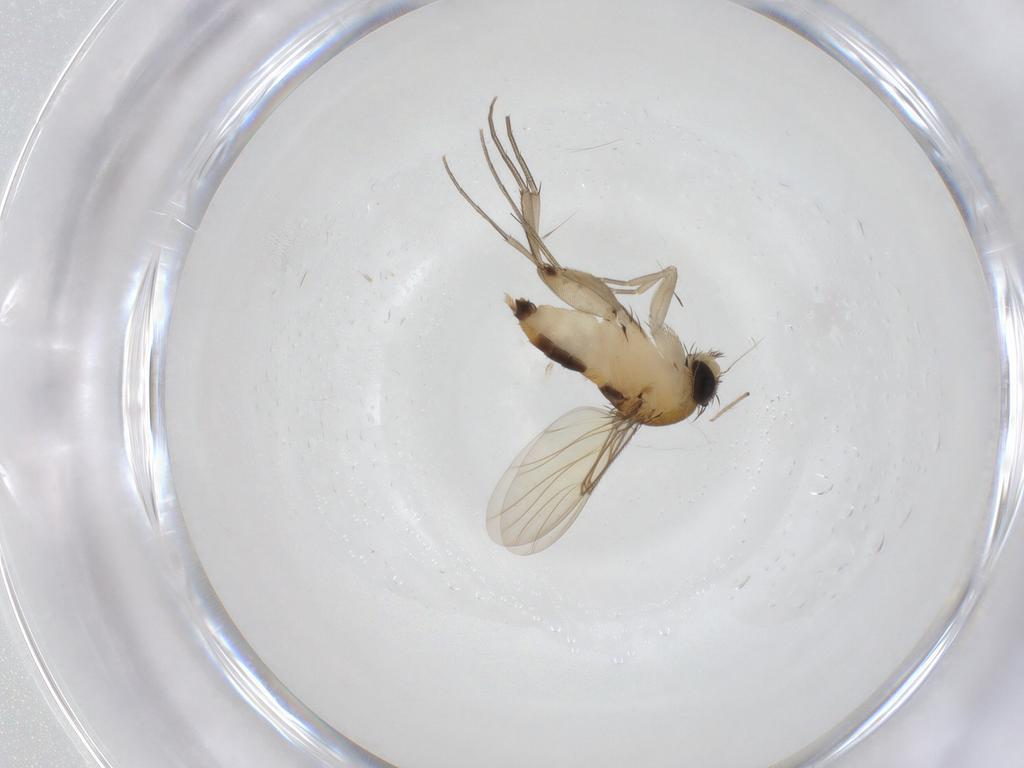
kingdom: Animalia
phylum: Arthropoda
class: Insecta
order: Diptera
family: Phoridae
